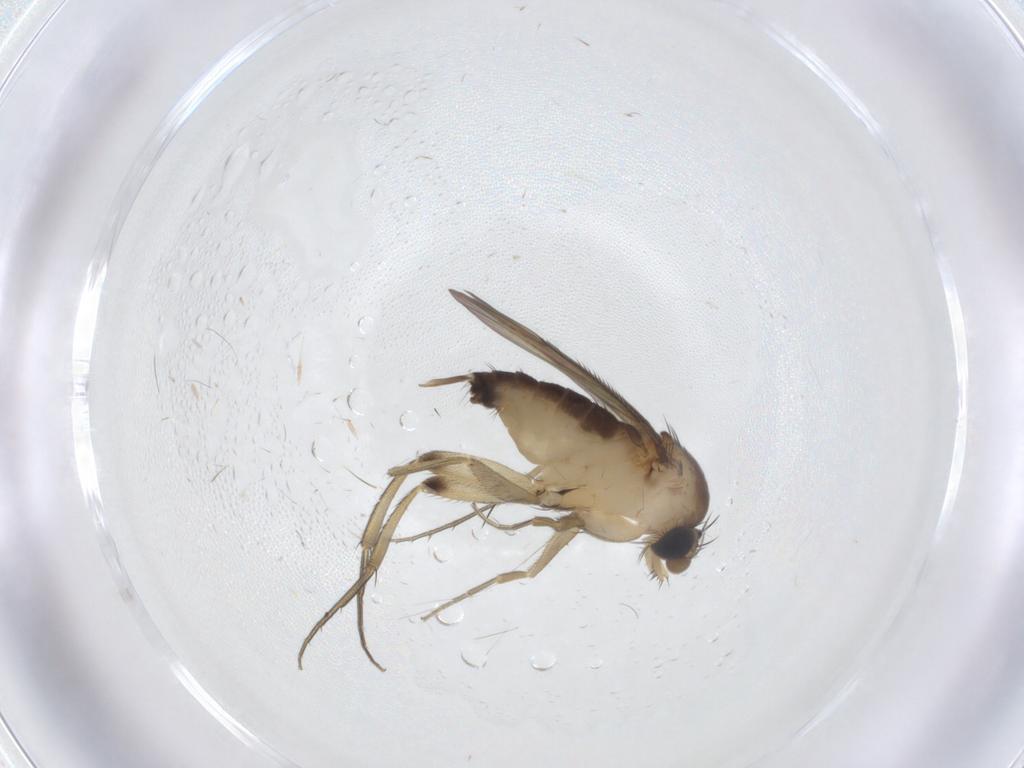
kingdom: Animalia
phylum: Arthropoda
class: Insecta
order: Diptera
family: Phoridae
